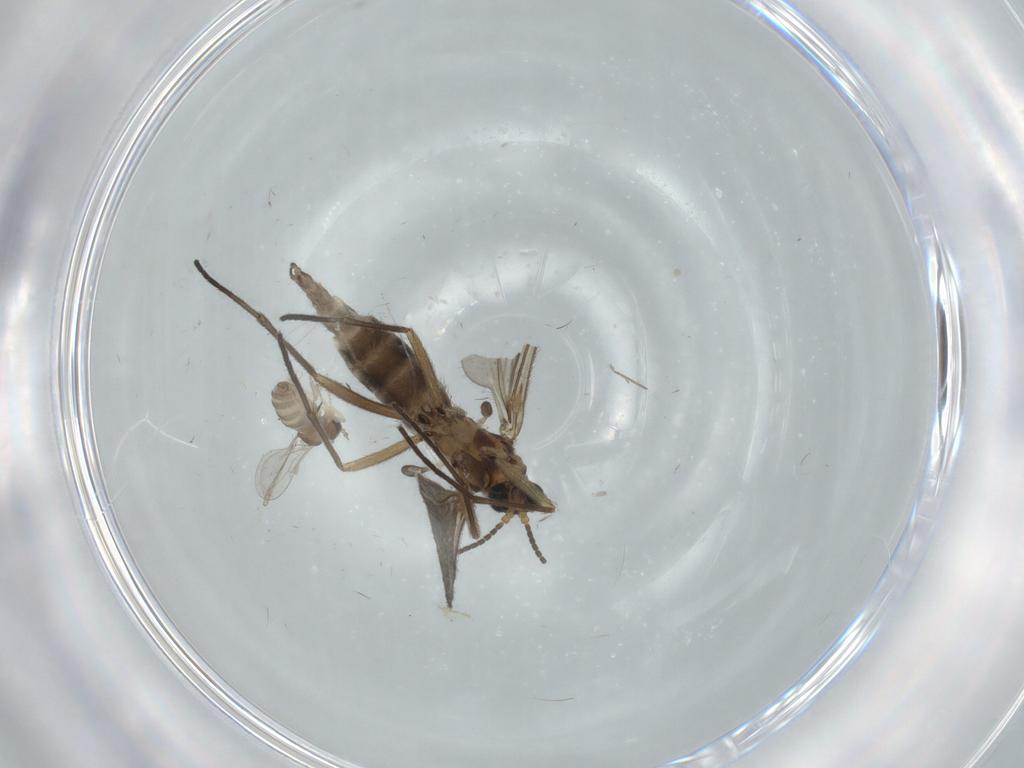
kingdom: Animalia
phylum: Arthropoda
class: Insecta
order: Diptera
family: Sciaridae
